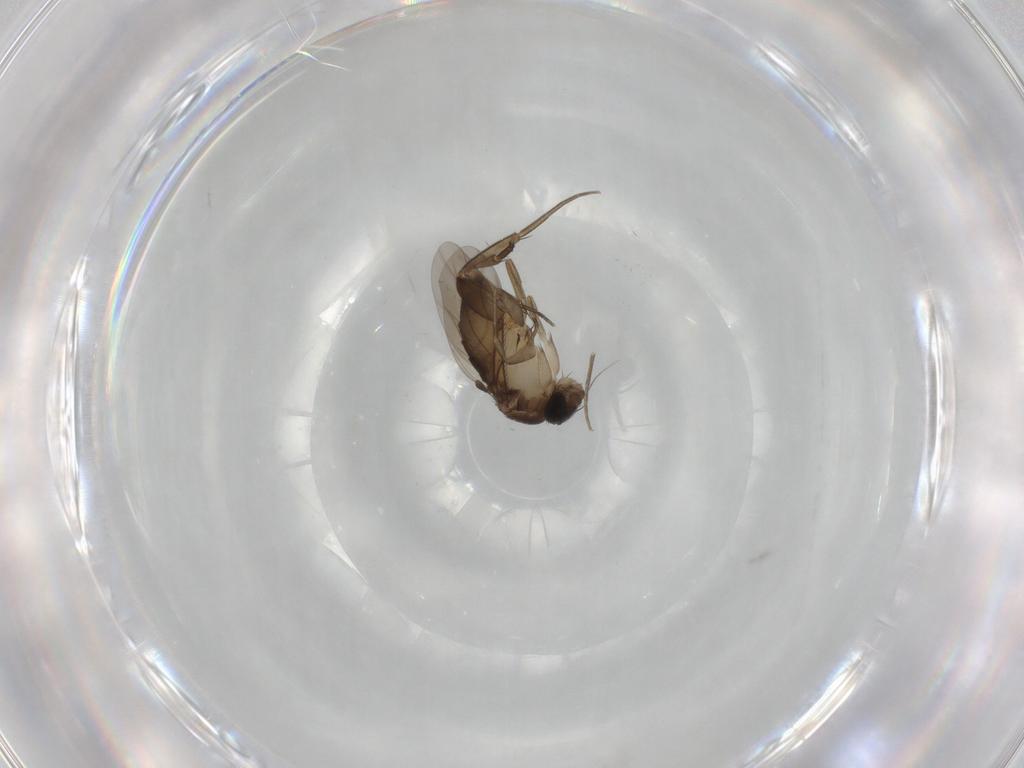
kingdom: Animalia
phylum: Arthropoda
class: Insecta
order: Diptera
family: Phoridae
